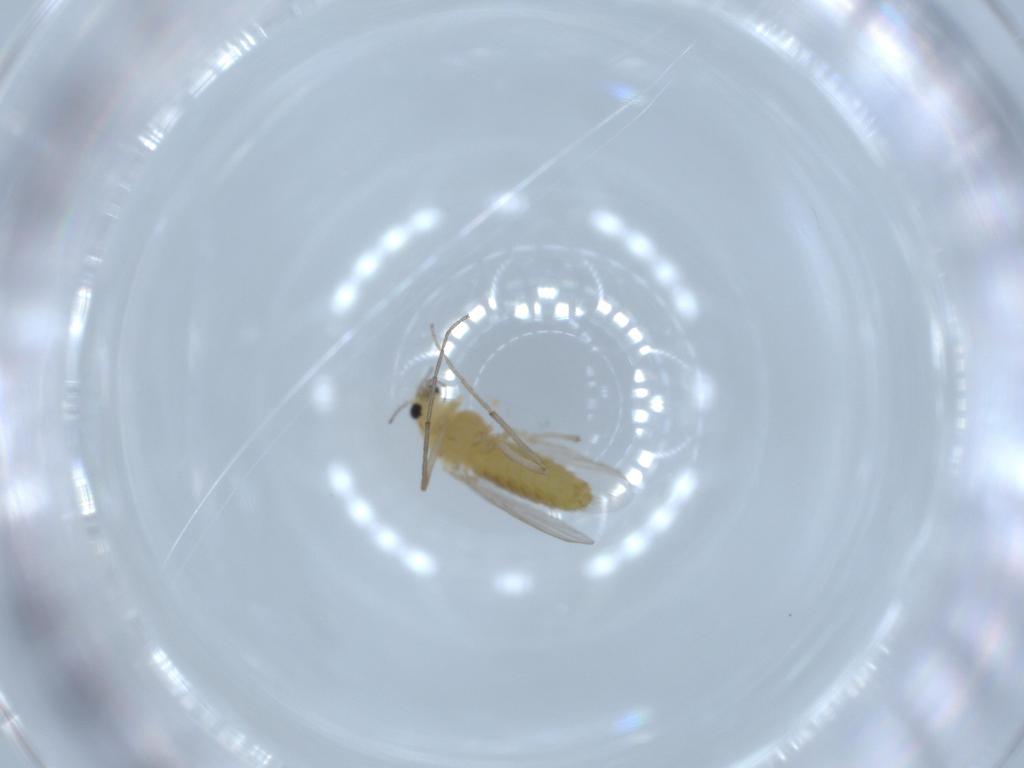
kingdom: Animalia
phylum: Arthropoda
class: Insecta
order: Diptera
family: Chironomidae
